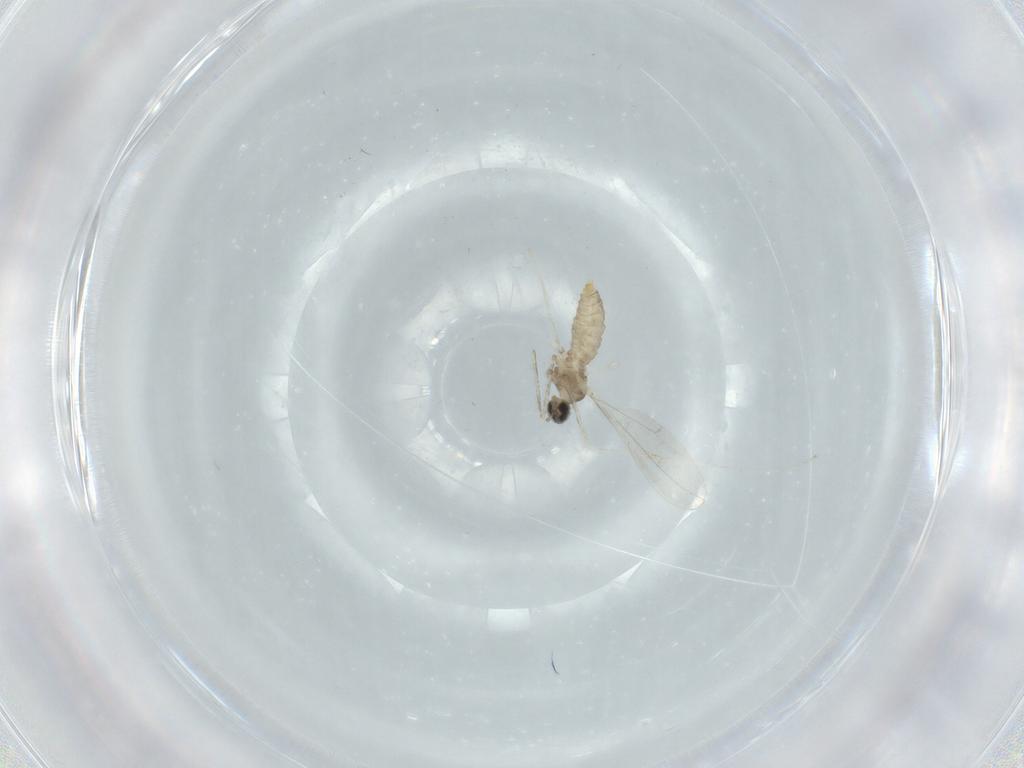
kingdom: Animalia
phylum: Arthropoda
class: Insecta
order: Diptera
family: Cecidomyiidae
